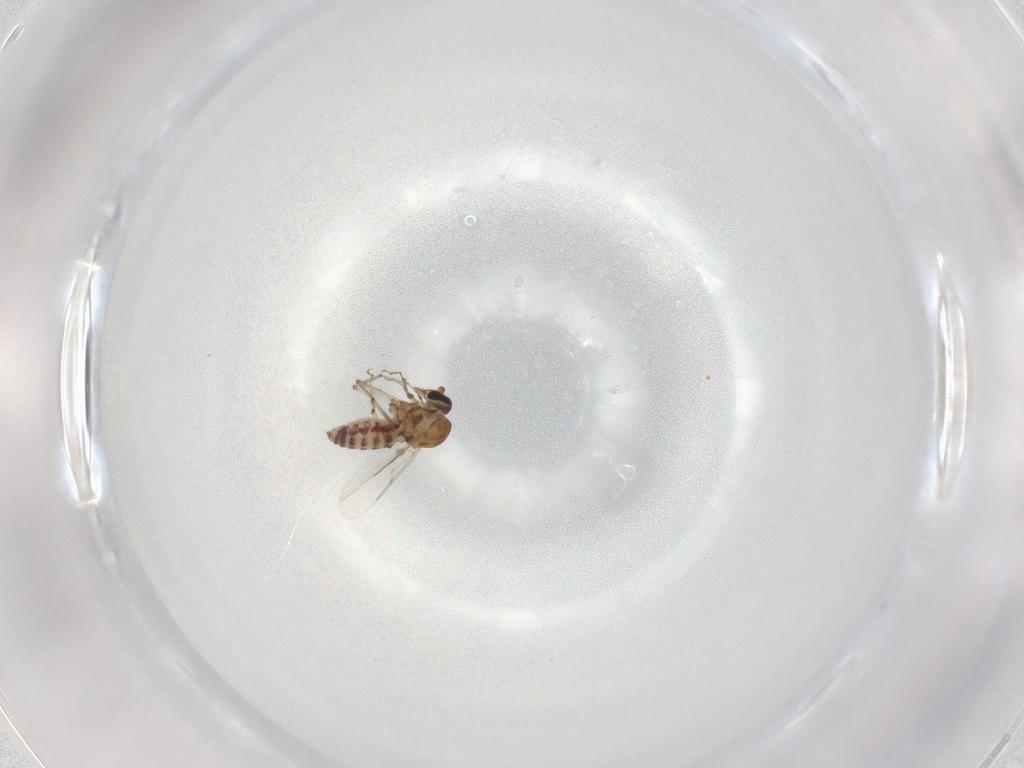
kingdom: Animalia
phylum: Arthropoda
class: Insecta
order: Diptera
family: Ceratopogonidae
